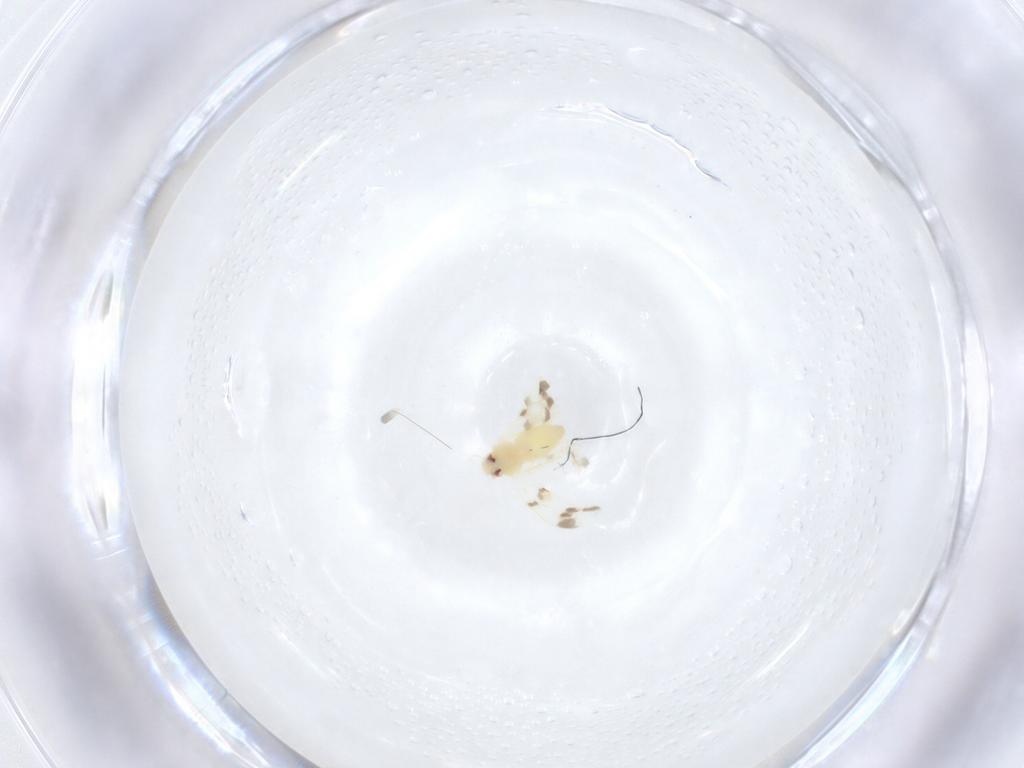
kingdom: Animalia
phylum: Arthropoda
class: Insecta
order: Hemiptera
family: Aleyrodidae
